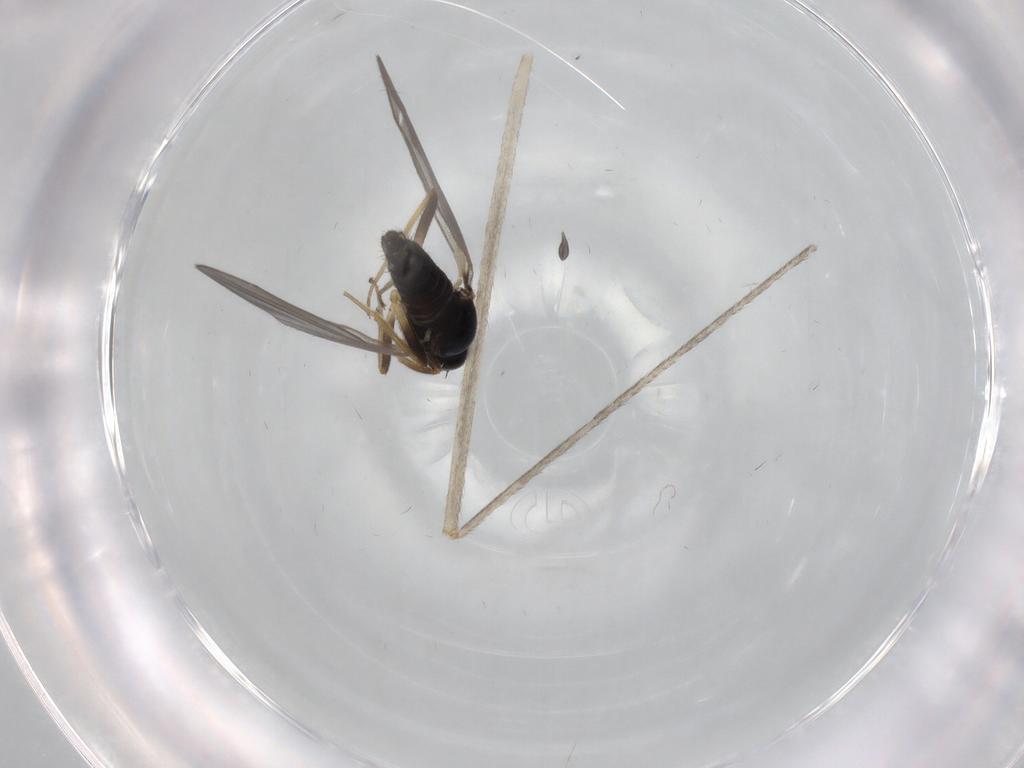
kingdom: Animalia
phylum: Arthropoda
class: Insecta
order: Diptera
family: Hybotidae
